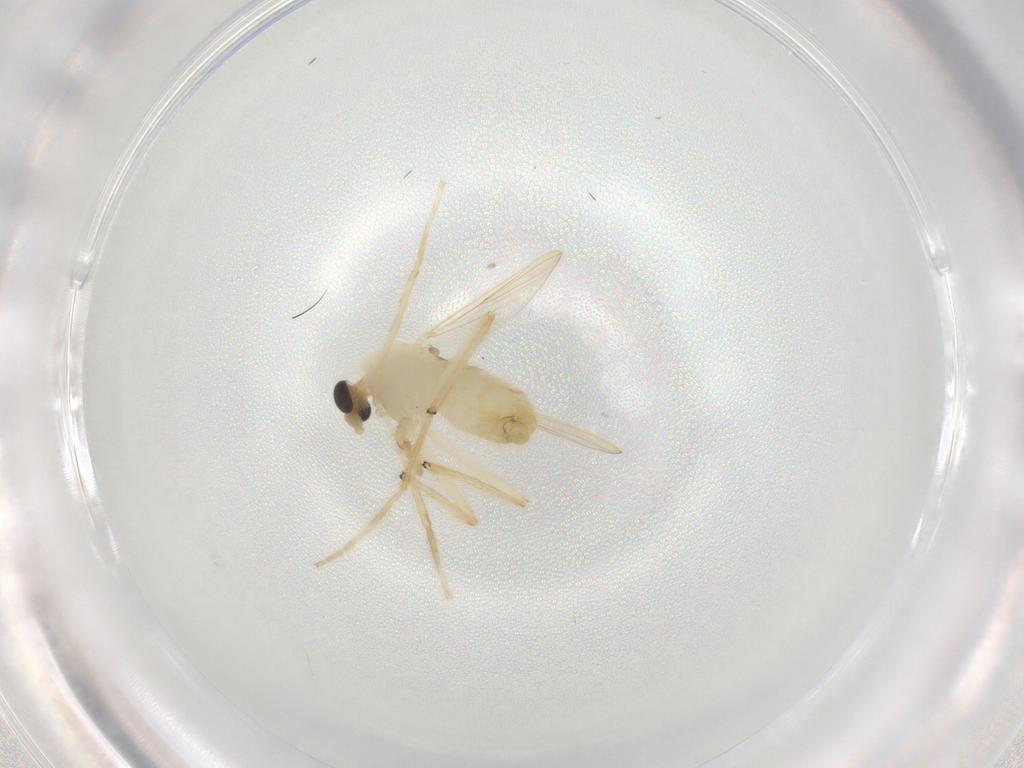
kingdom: Animalia
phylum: Arthropoda
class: Insecta
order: Diptera
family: Chironomidae
